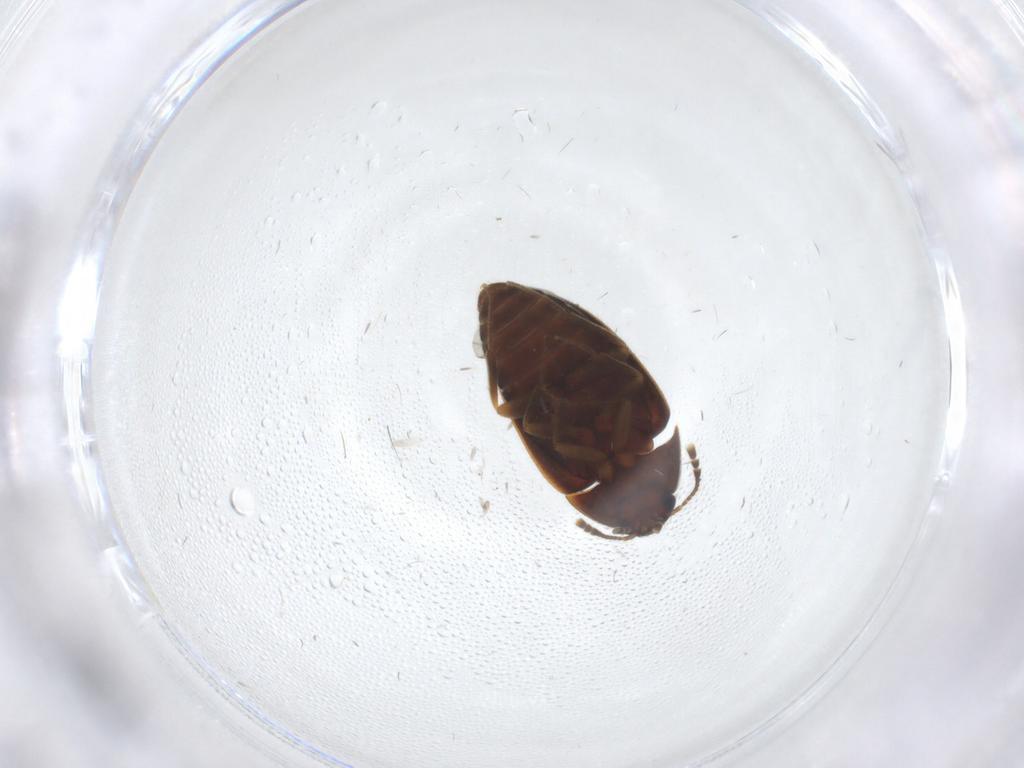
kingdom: Animalia
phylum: Arthropoda
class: Insecta
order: Coleoptera
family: Mycetophagidae
